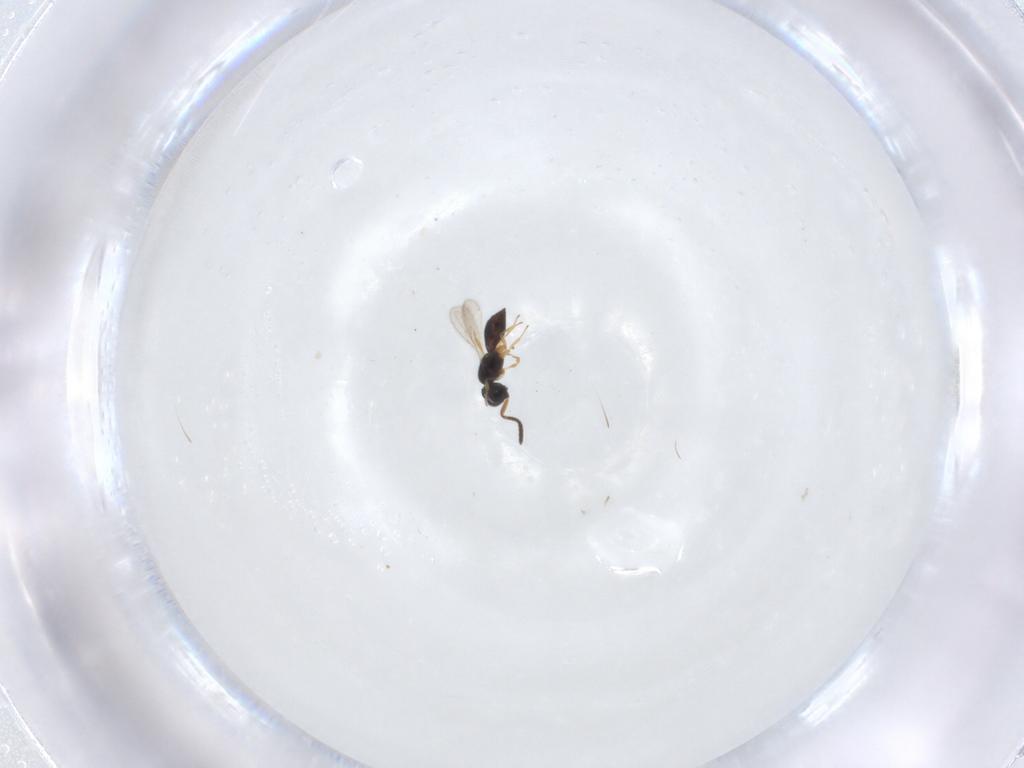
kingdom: Animalia
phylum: Arthropoda
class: Insecta
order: Hymenoptera
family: Scelionidae
